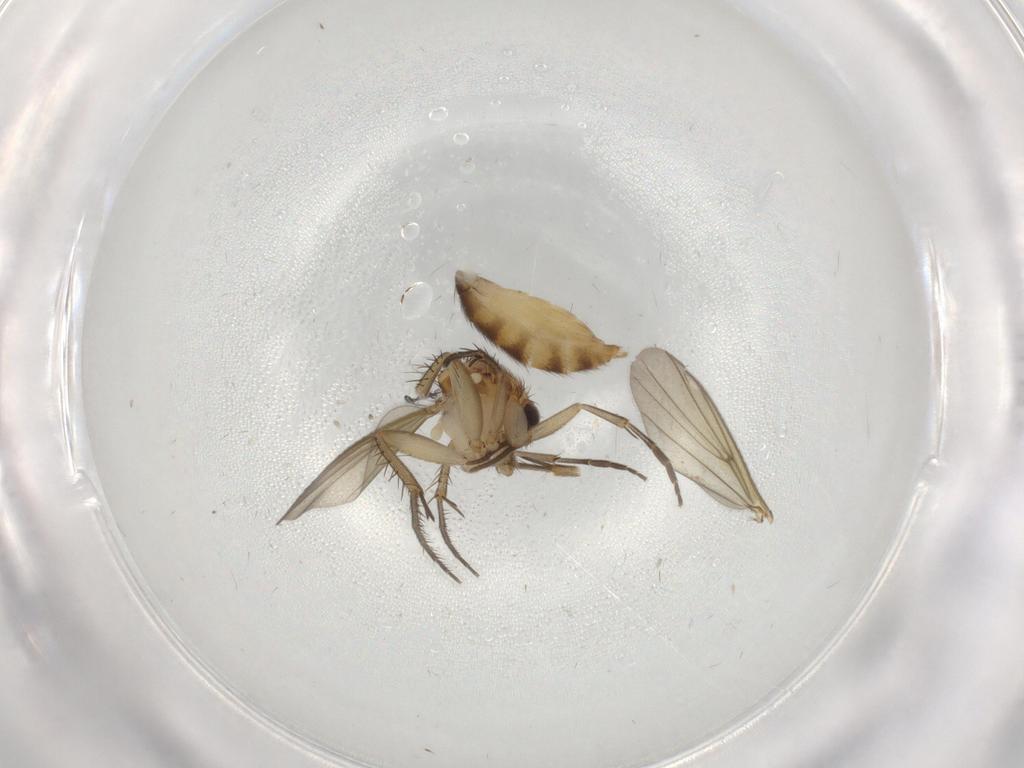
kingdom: Animalia
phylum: Arthropoda
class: Insecta
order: Diptera
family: Mycetophilidae
